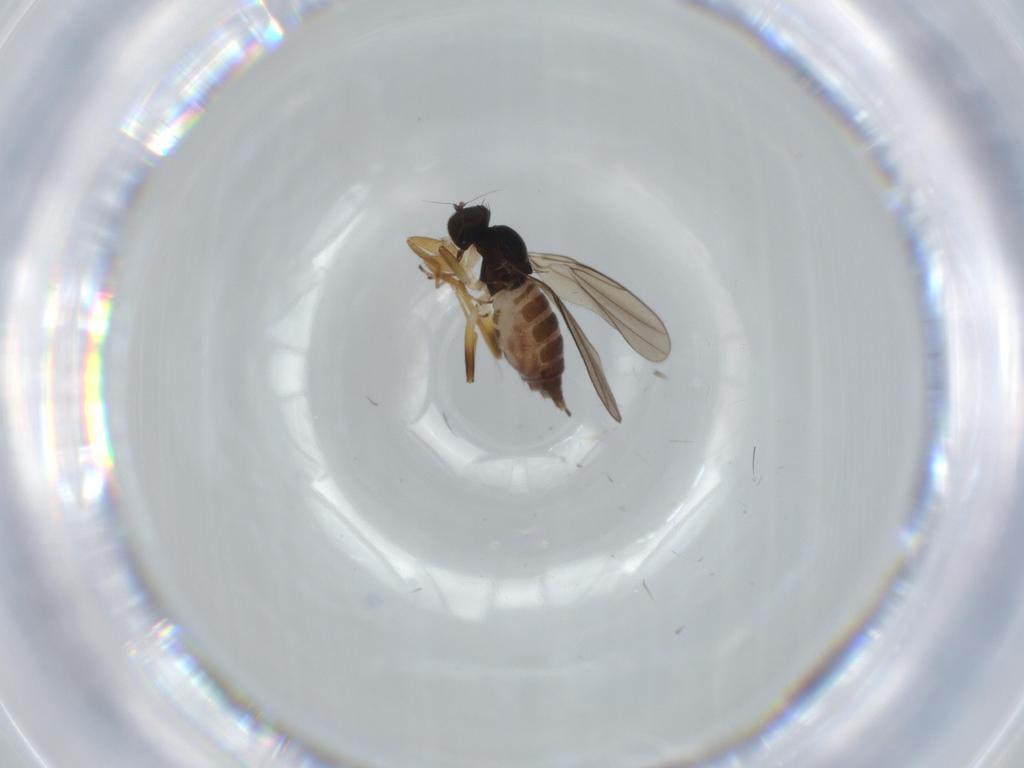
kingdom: Animalia
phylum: Arthropoda
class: Insecta
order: Diptera
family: Hybotidae
